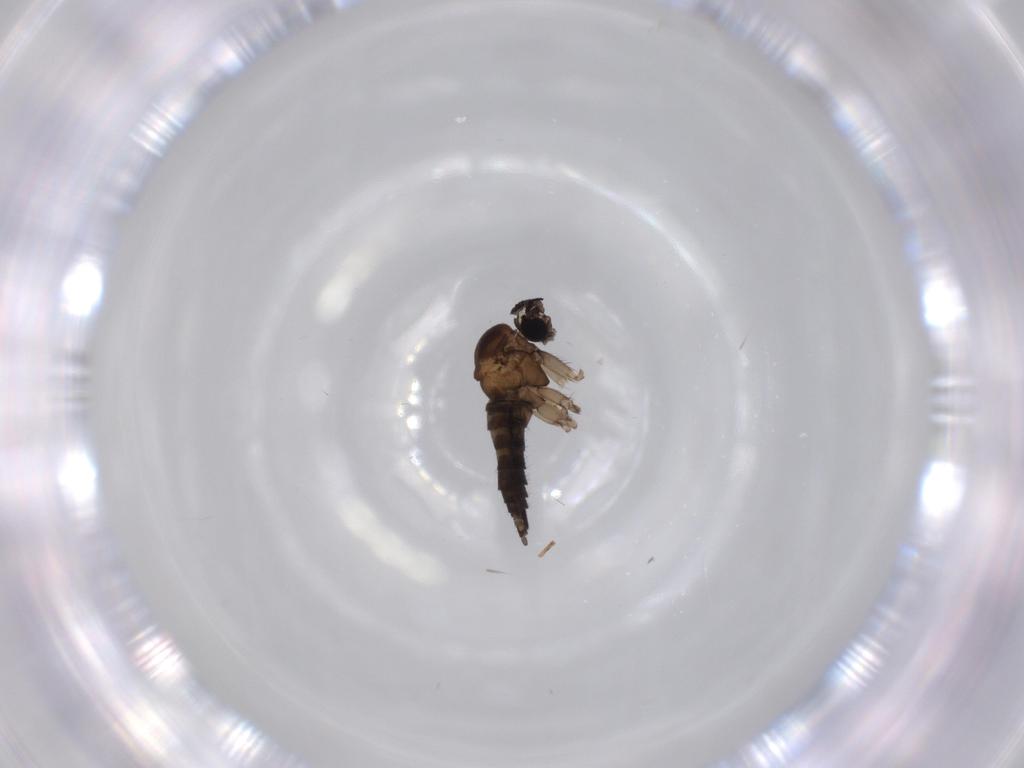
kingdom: Animalia
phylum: Arthropoda
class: Insecta
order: Diptera
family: Sciaridae
